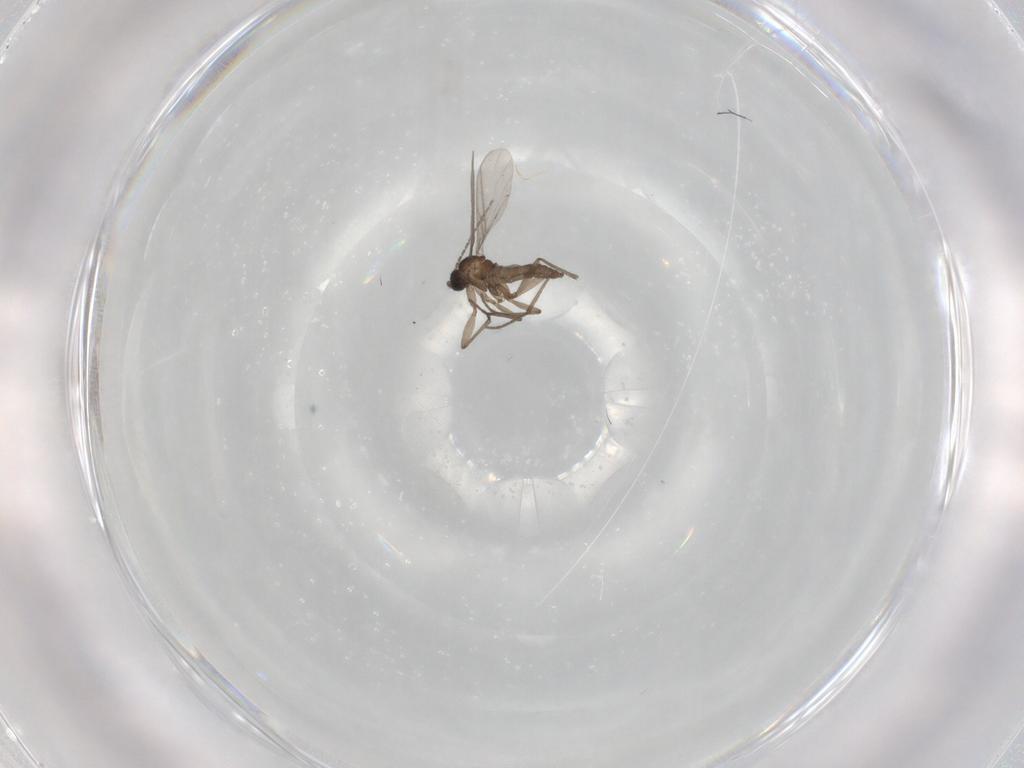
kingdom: Animalia
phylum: Arthropoda
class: Insecta
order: Diptera
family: Sciaridae
